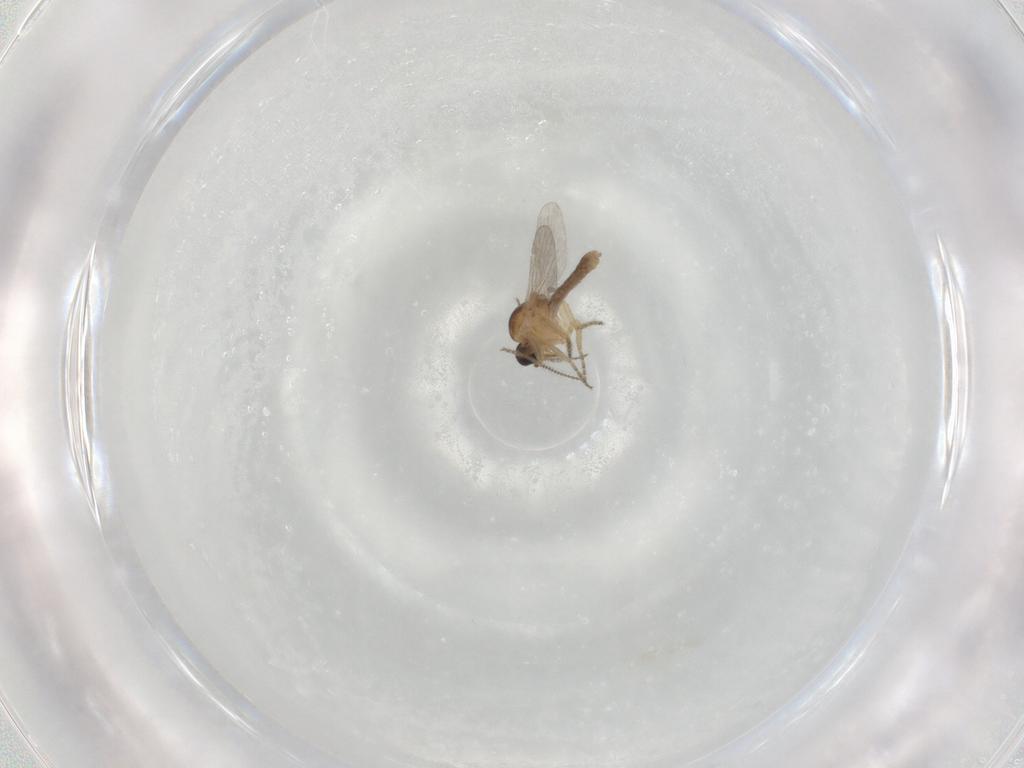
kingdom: Animalia
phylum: Arthropoda
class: Insecta
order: Diptera
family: Ceratopogonidae
